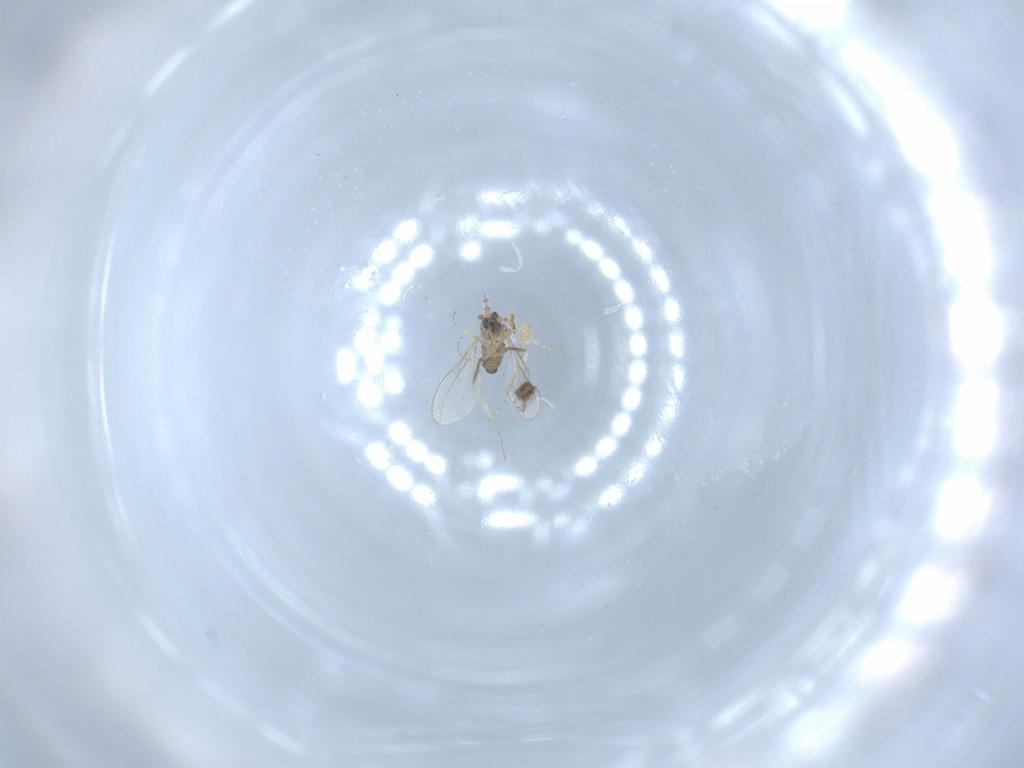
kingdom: Animalia
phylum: Arthropoda
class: Insecta
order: Diptera
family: Cecidomyiidae
